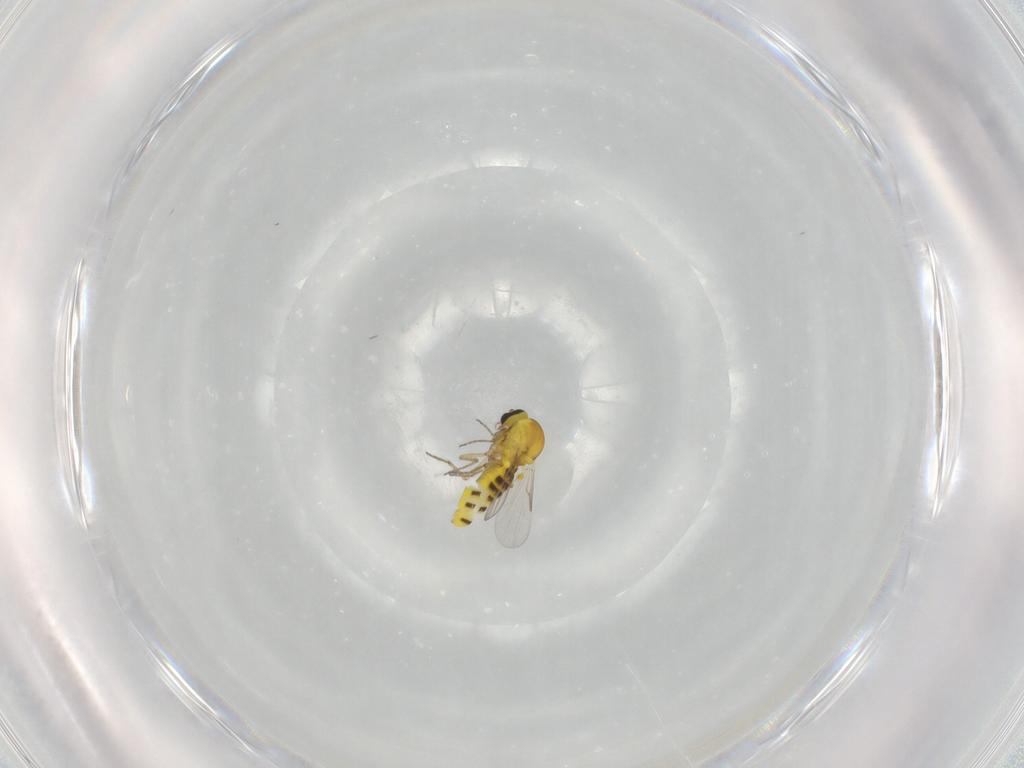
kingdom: Animalia
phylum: Arthropoda
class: Insecta
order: Diptera
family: Ceratopogonidae
